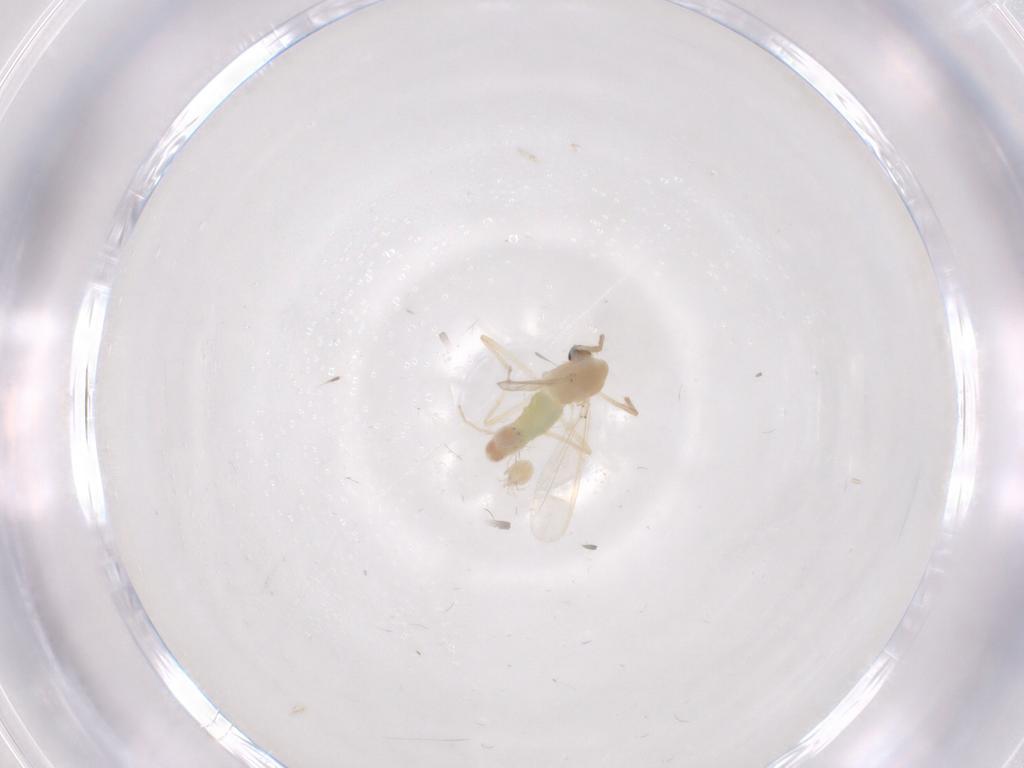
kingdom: Animalia
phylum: Arthropoda
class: Insecta
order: Diptera
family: Chironomidae
